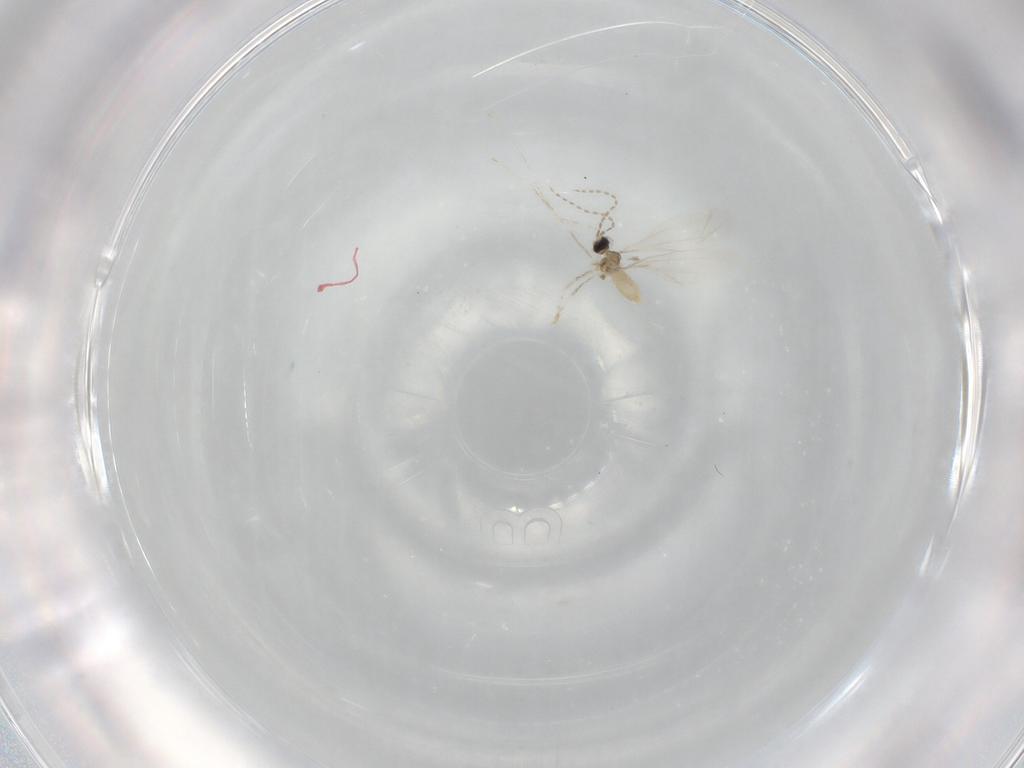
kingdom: Animalia
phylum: Arthropoda
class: Insecta
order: Diptera
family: Cecidomyiidae
